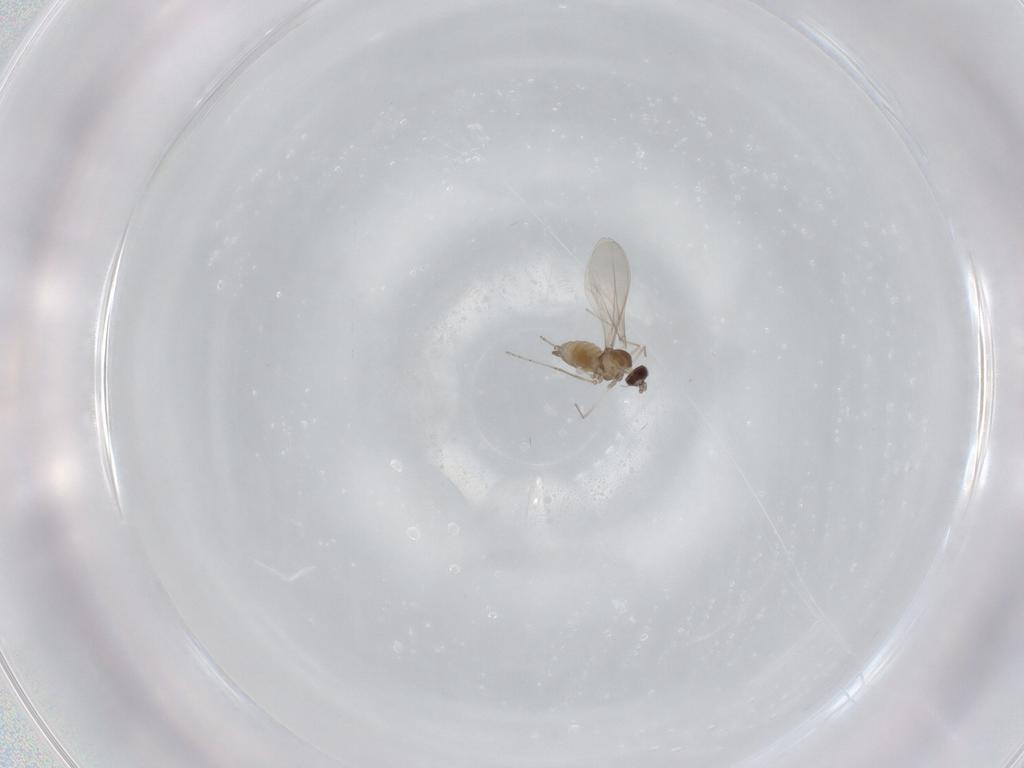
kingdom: Animalia
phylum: Arthropoda
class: Insecta
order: Diptera
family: Cecidomyiidae
